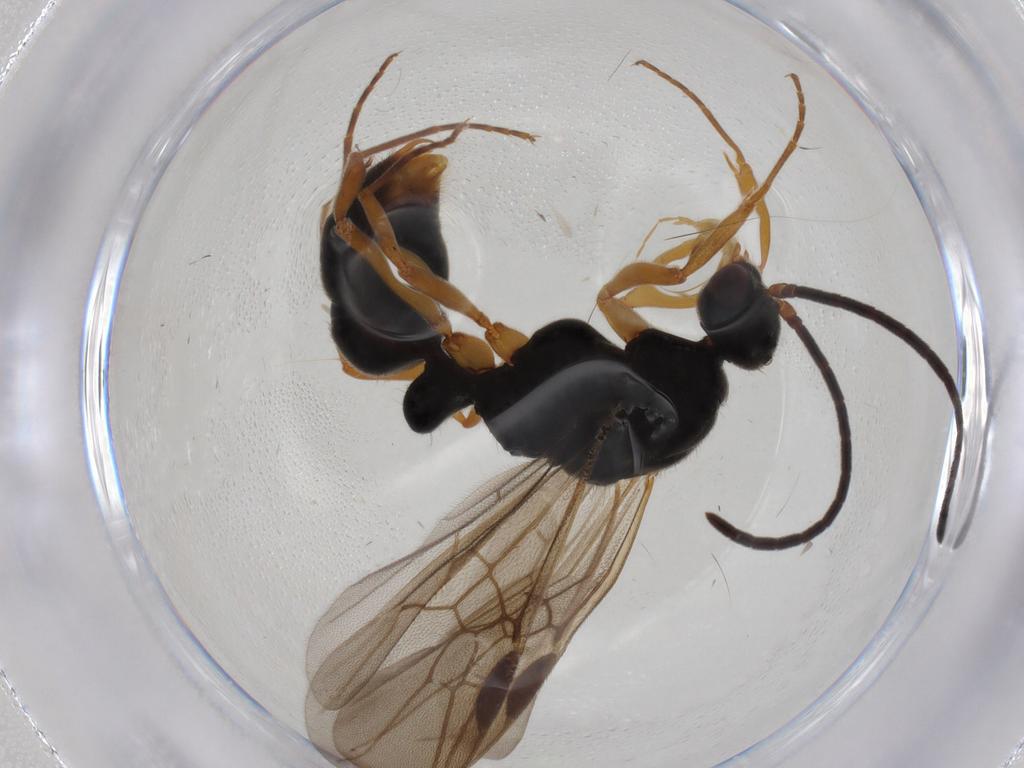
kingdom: Animalia
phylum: Arthropoda
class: Insecta
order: Hymenoptera
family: Formicidae
